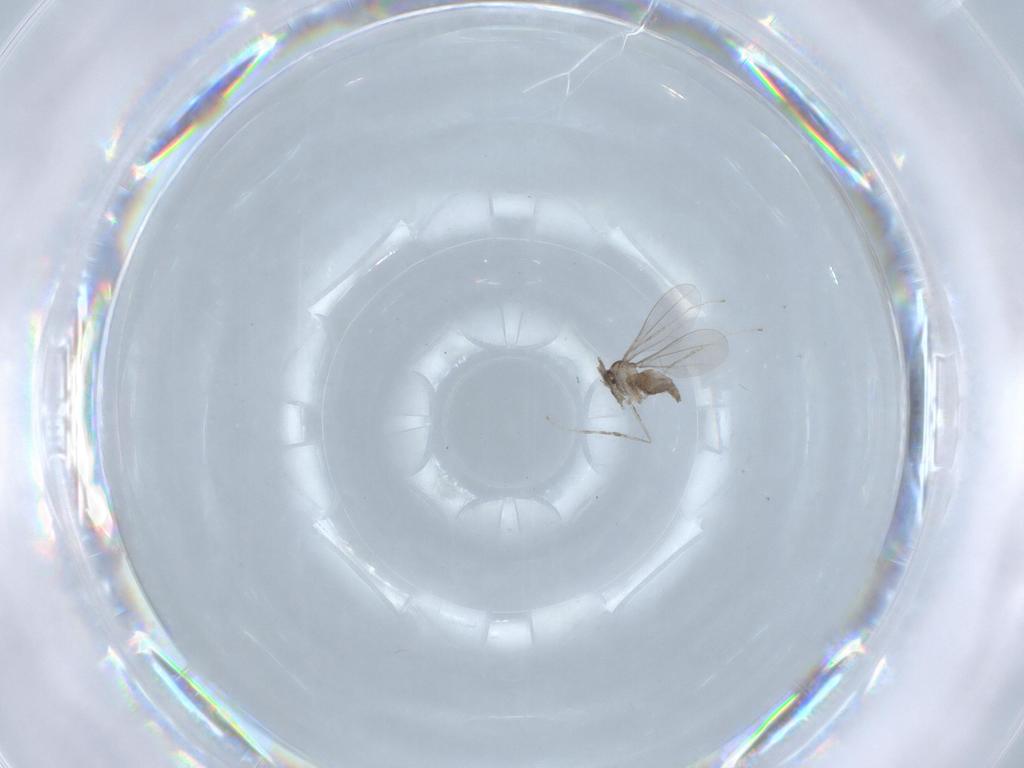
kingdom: Animalia
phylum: Arthropoda
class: Insecta
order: Diptera
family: Cecidomyiidae
